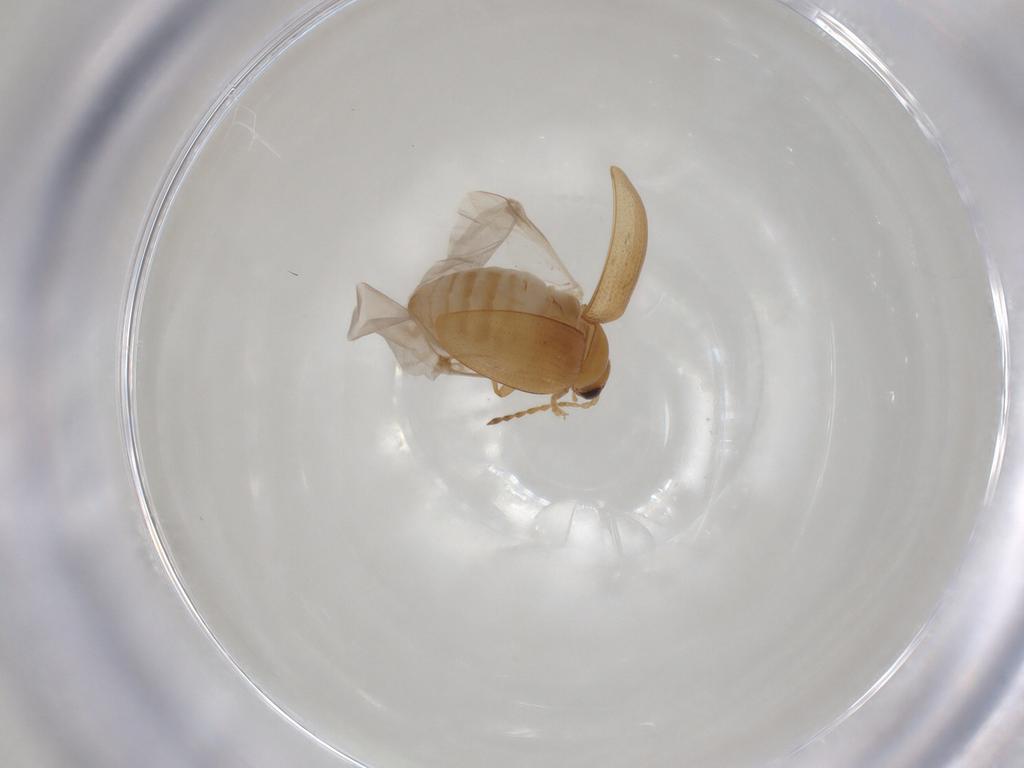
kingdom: Animalia
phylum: Arthropoda
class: Insecta
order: Coleoptera
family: Chrysomelidae
